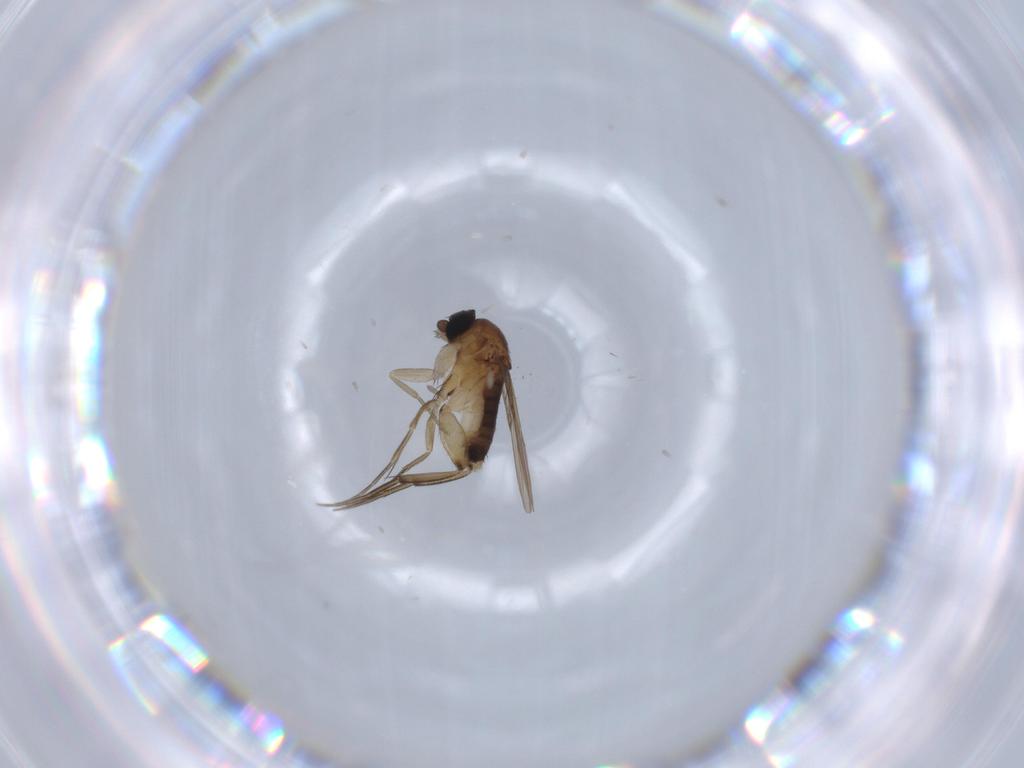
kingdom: Animalia
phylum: Arthropoda
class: Insecta
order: Diptera
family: Phoridae
